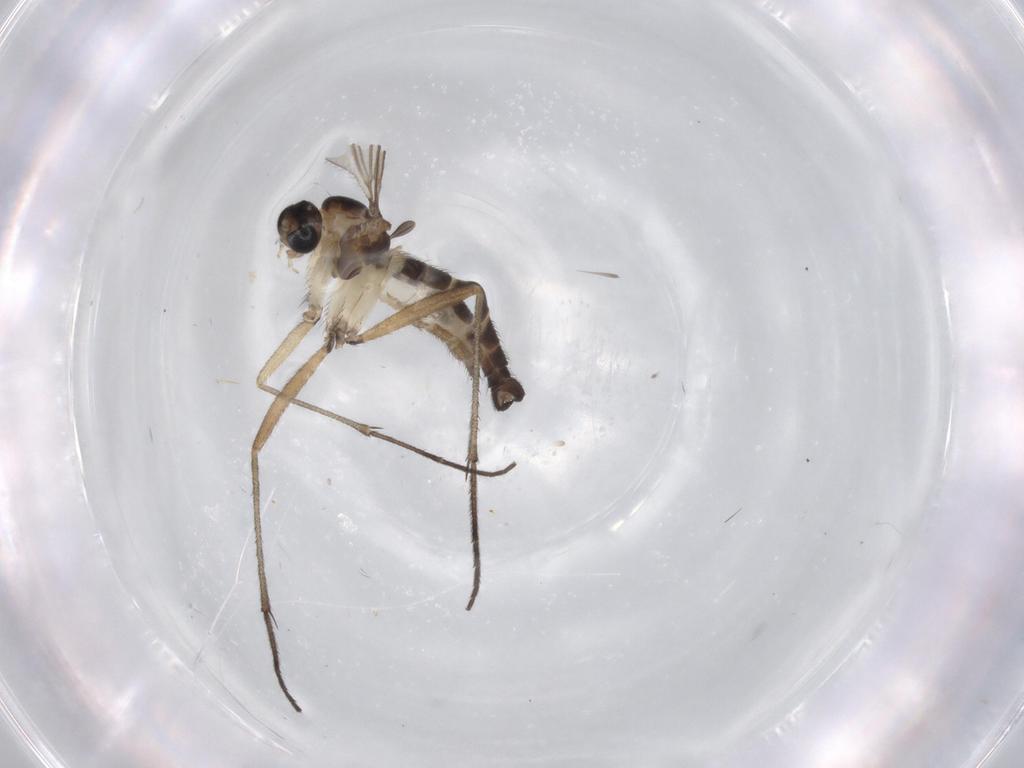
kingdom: Animalia
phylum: Arthropoda
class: Insecta
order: Diptera
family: Sciaridae
